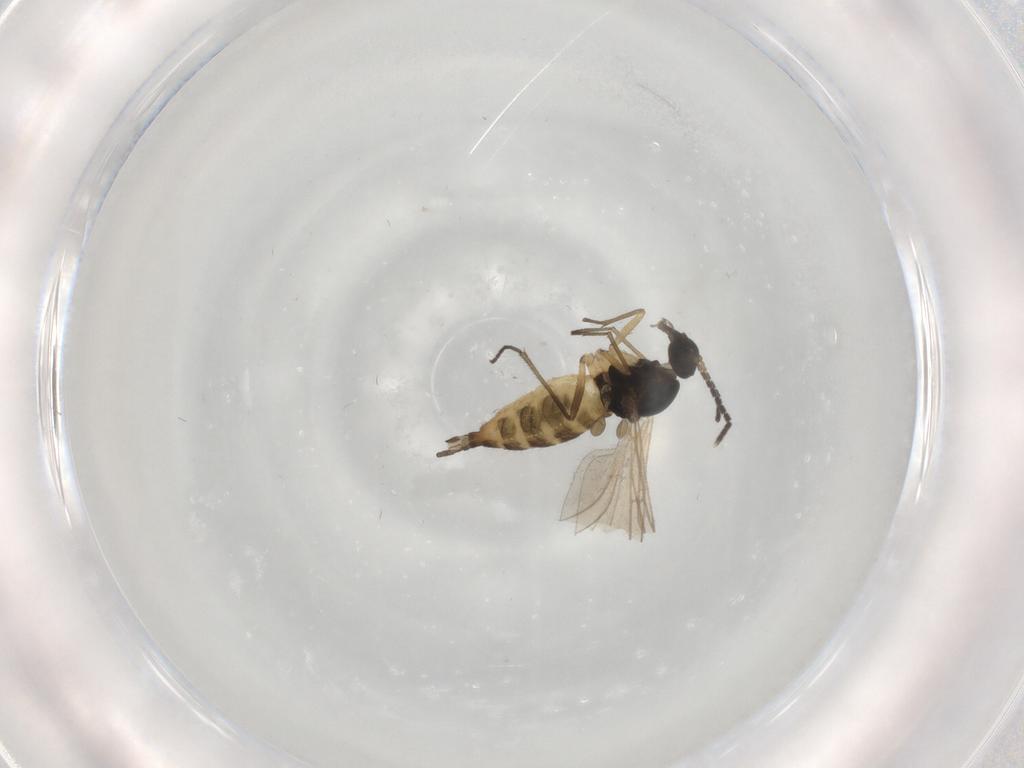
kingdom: Animalia
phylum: Arthropoda
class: Insecta
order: Diptera
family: Sciaridae
